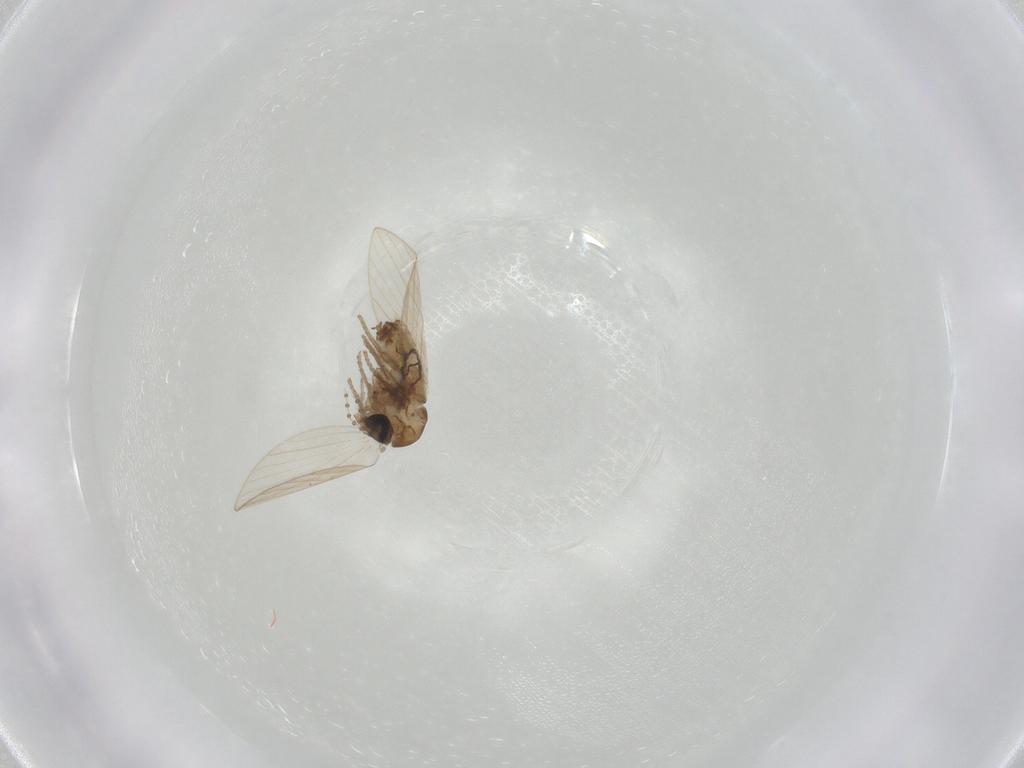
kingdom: Animalia
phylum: Arthropoda
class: Insecta
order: Diptera
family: Psychodidae
